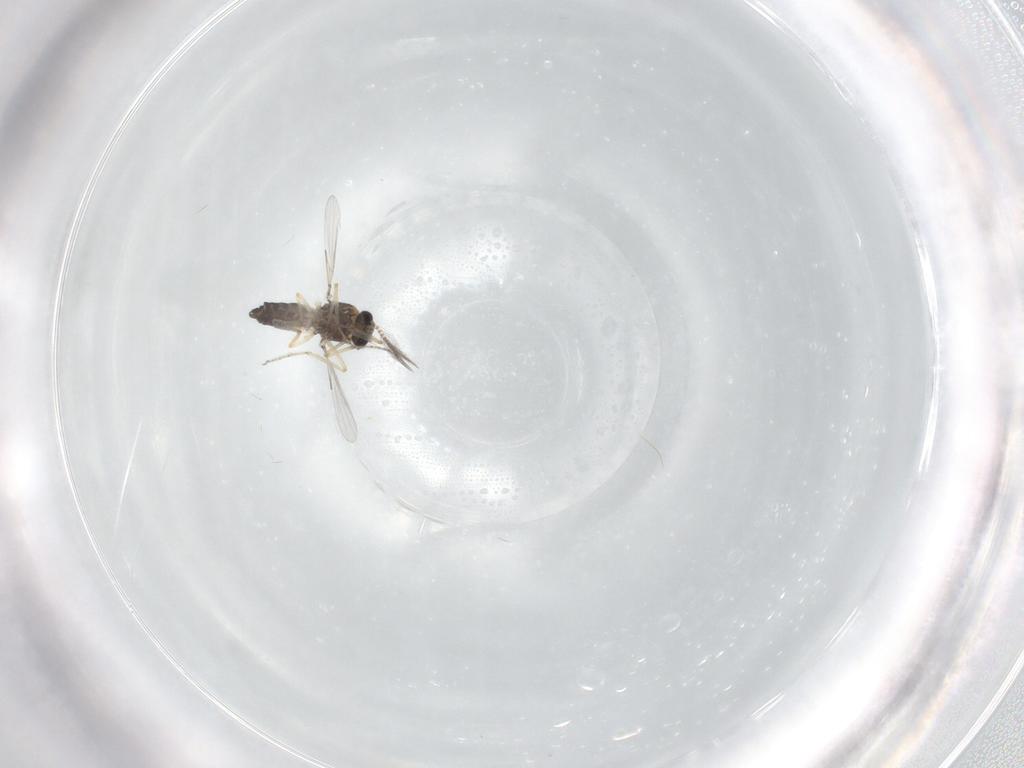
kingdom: Animalia
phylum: Arthropoda
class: Insecta
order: Diptera
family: Ceratopogonidae
